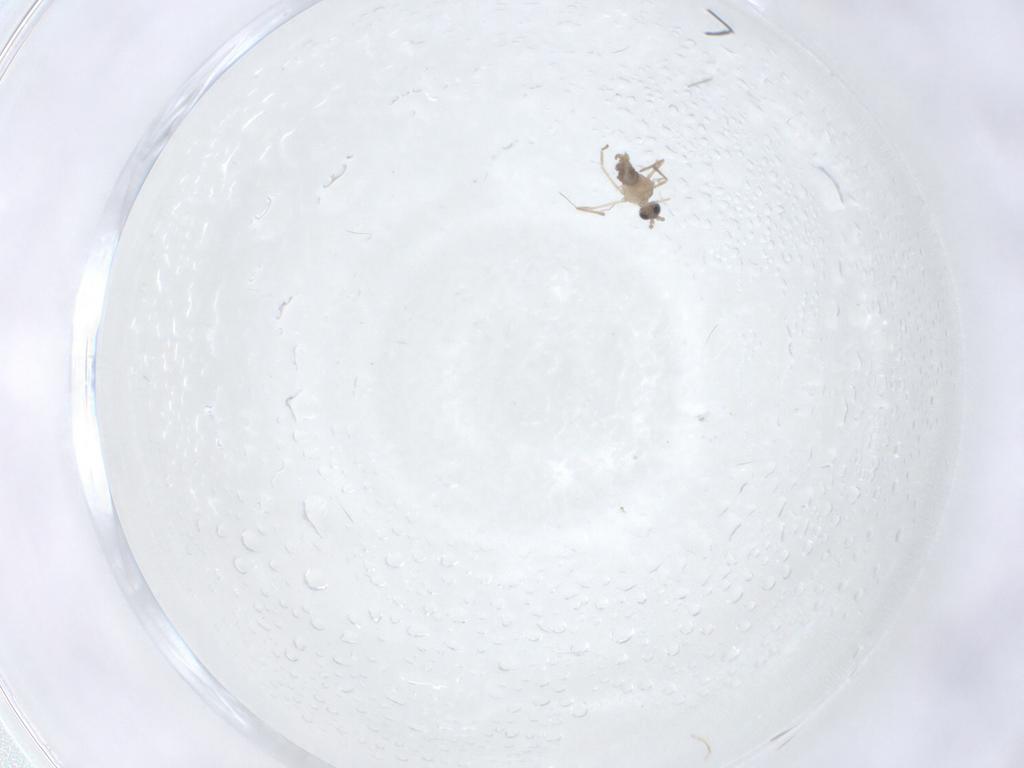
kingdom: Animalia
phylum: Arthropoda
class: Insecta
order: Diptera
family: Cecidomyiidae
